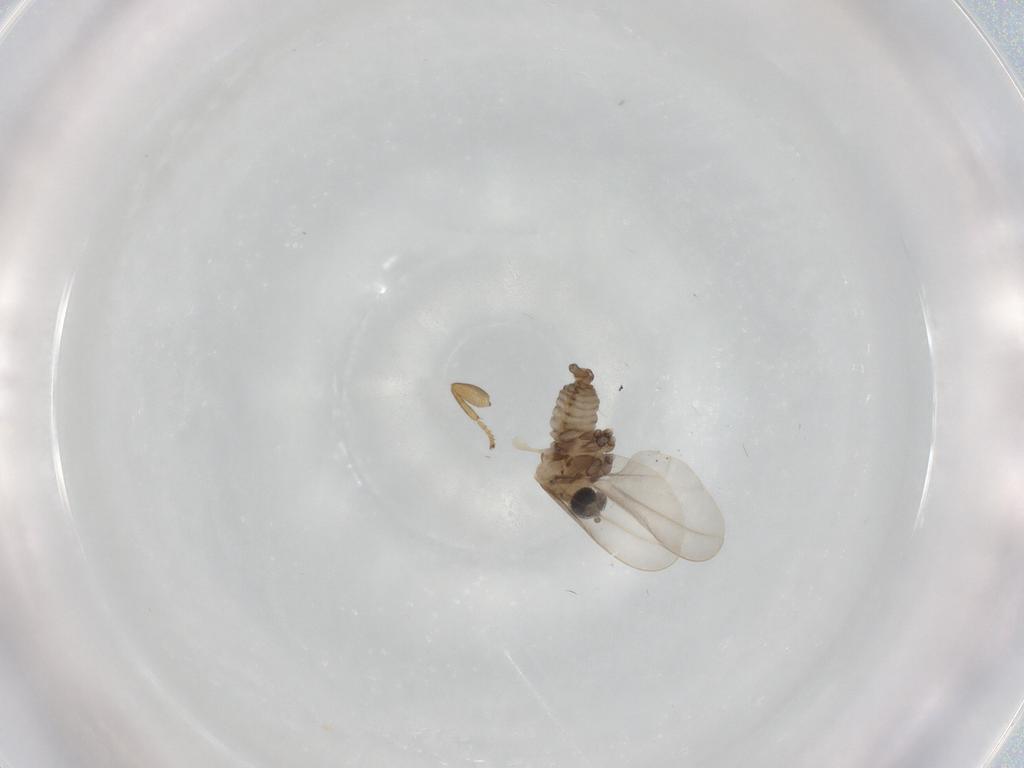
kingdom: Animalia
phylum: Arthropoda
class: Insecta
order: Diptera
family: Cecidomyiidae
